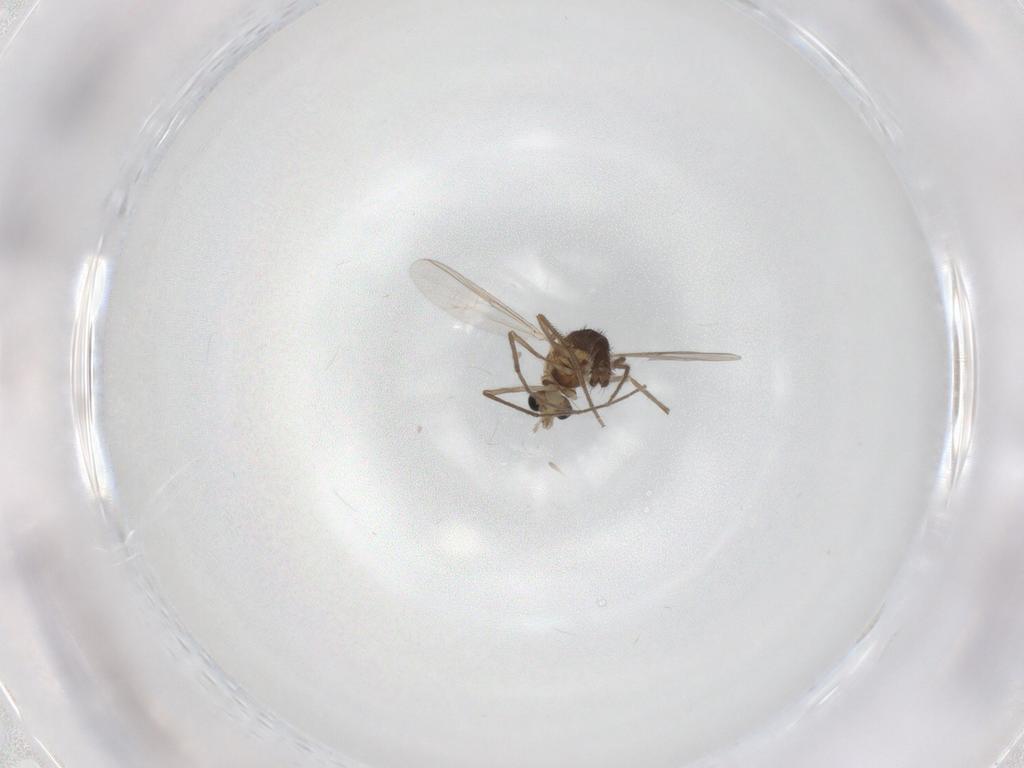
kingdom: Animalia
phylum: Arthropoda
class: Insecta
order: Diptera
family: Chironomidae
